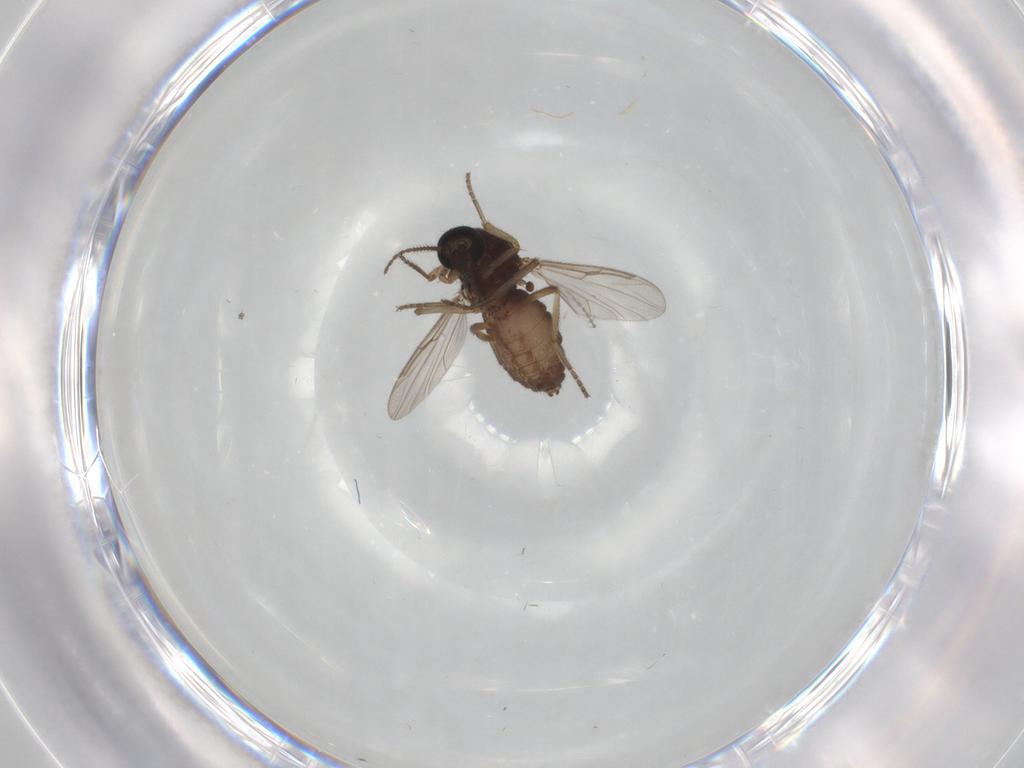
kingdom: Animalia
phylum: Arthropoda
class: Insecta
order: Diptera
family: Ceratopogonidae
